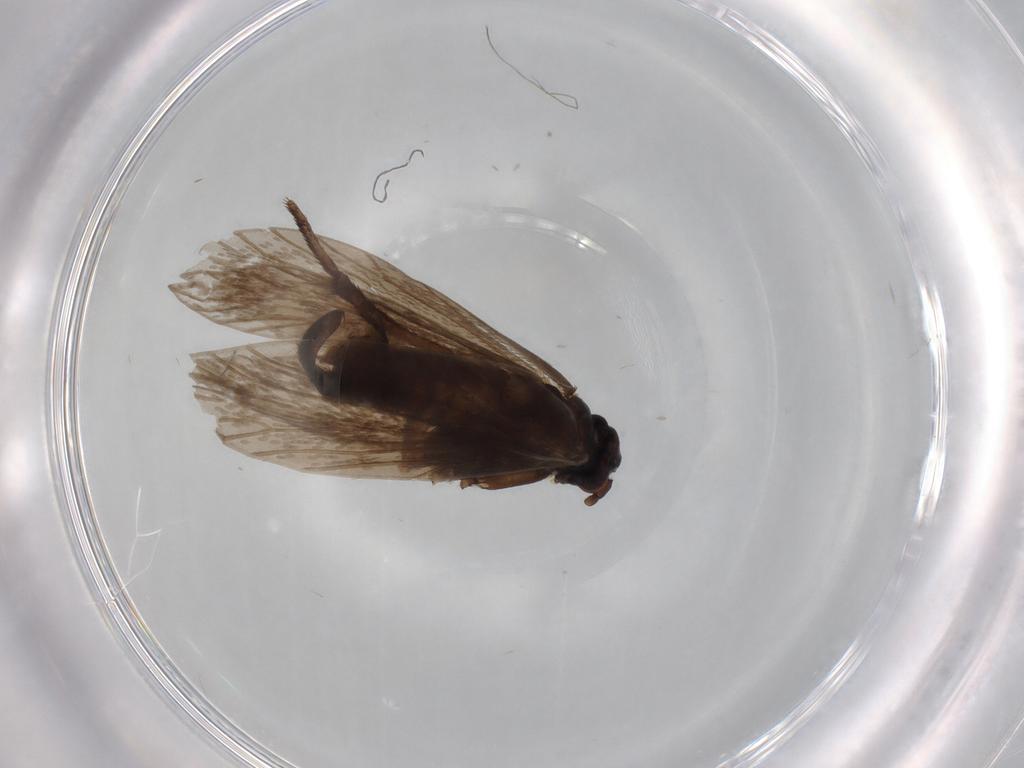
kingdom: Animalia
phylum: Arthropoda
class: Insecta
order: Lepidoptera
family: Micropterigidae
